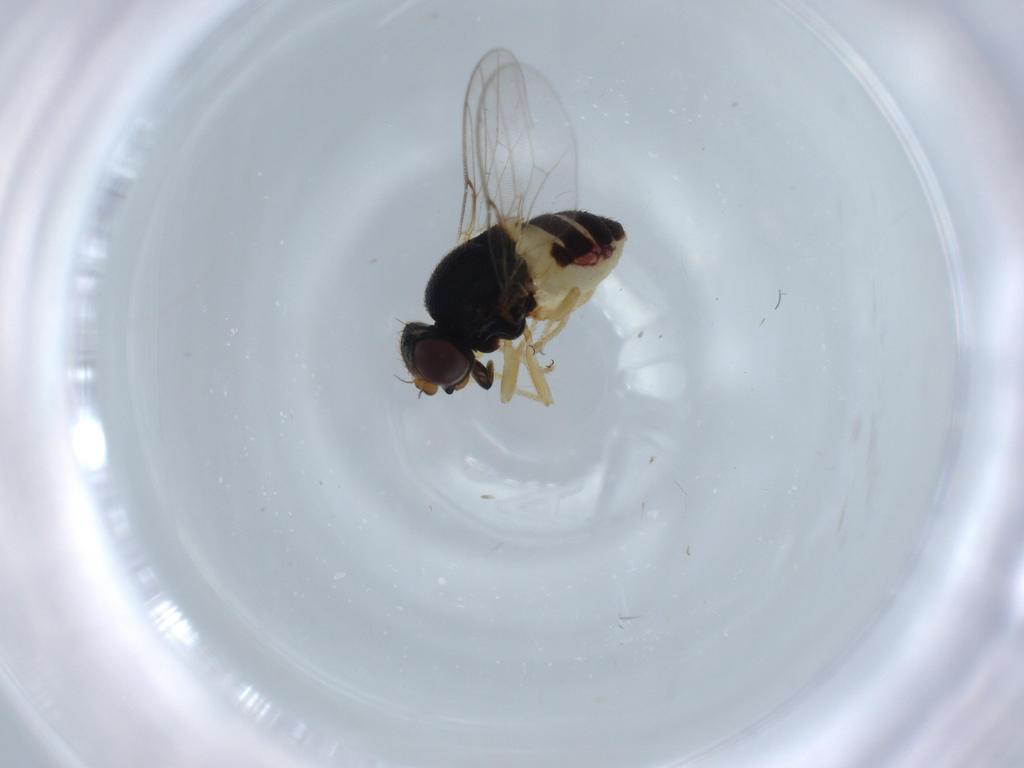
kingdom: Animalia
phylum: Arthropoda
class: Insecta
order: Diptera
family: Chloropidae
